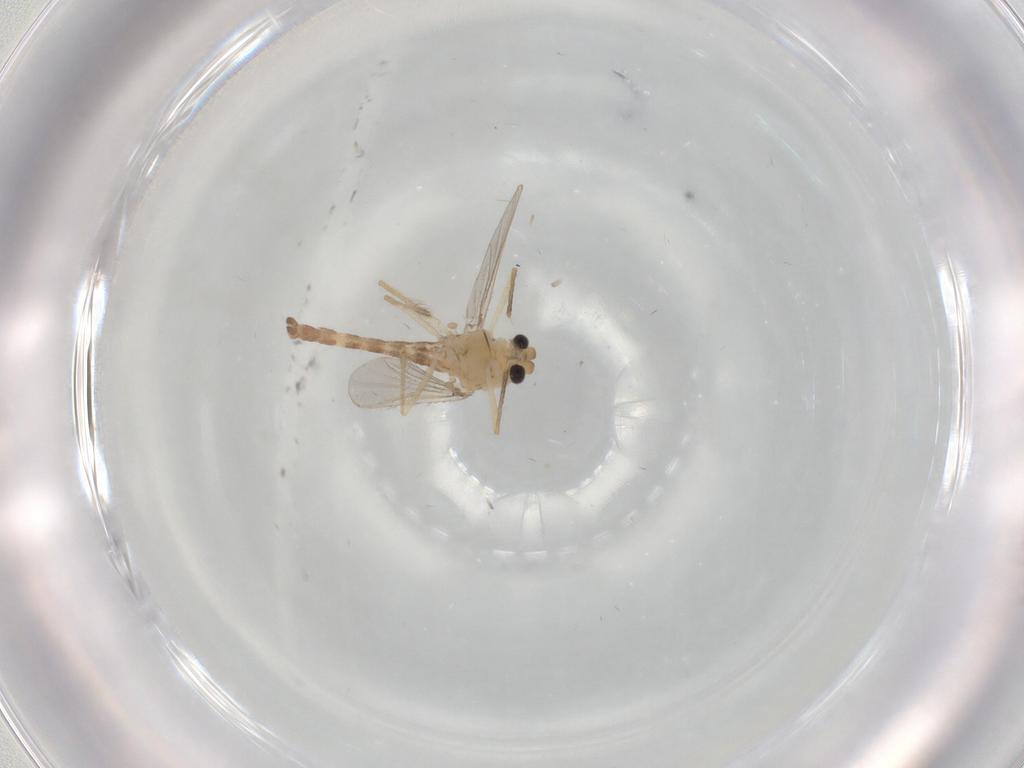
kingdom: Animalia
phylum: Arthropoda
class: Insecta
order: Diptera
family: Chironomidae
